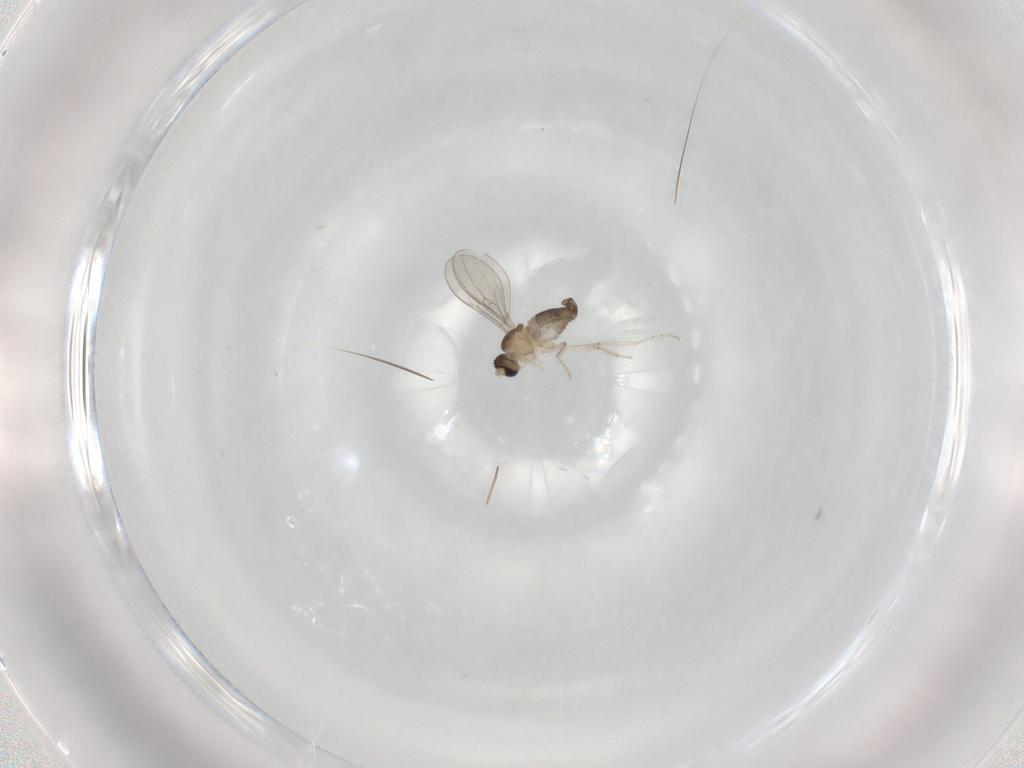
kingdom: Animalia
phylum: Arthropoda
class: Insecta
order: Diptera
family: Cecidomyiidae
